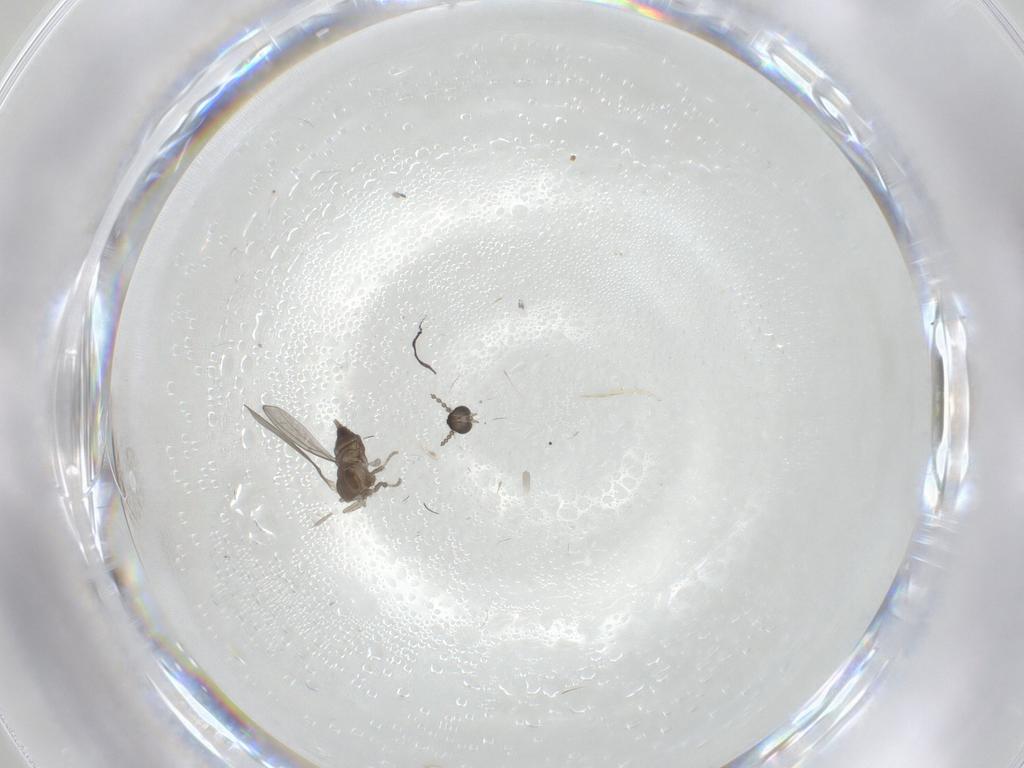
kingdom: Animalia
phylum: Arthropoda
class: Insecta
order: Diptera
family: Cecidomyiidae
